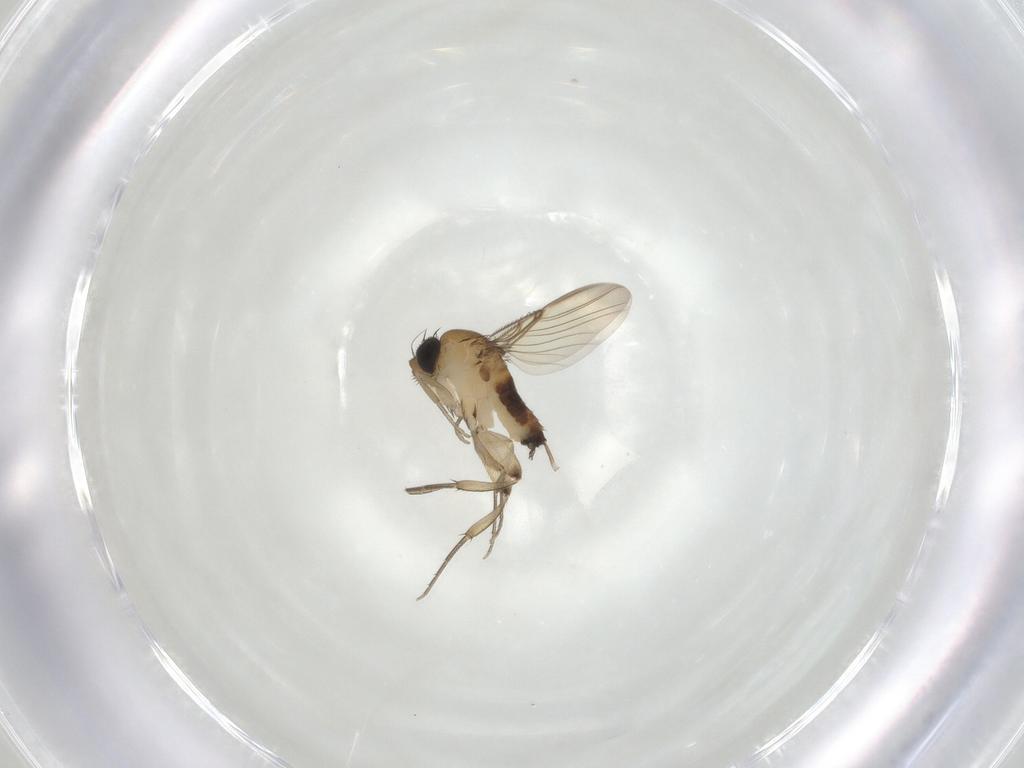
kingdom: Animalia
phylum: Arthropoda
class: Insecta
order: Diptera
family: Phoridae
